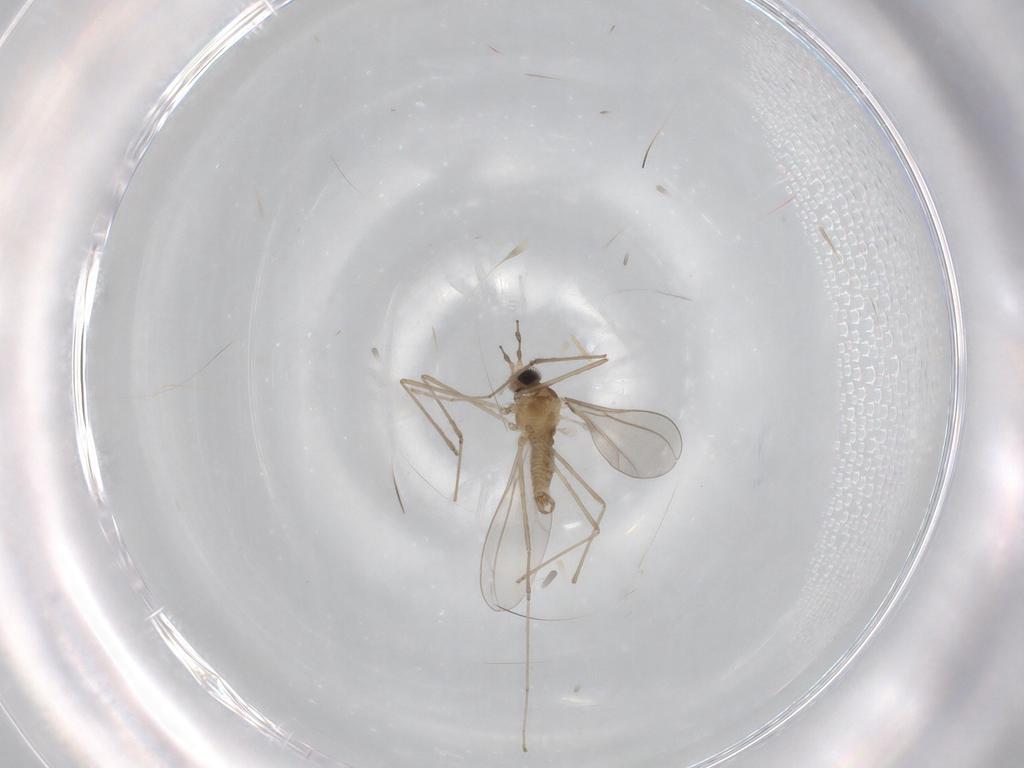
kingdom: Animalia
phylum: Arthropoda
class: Insecta
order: Diptera
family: Cecidomyiidae
